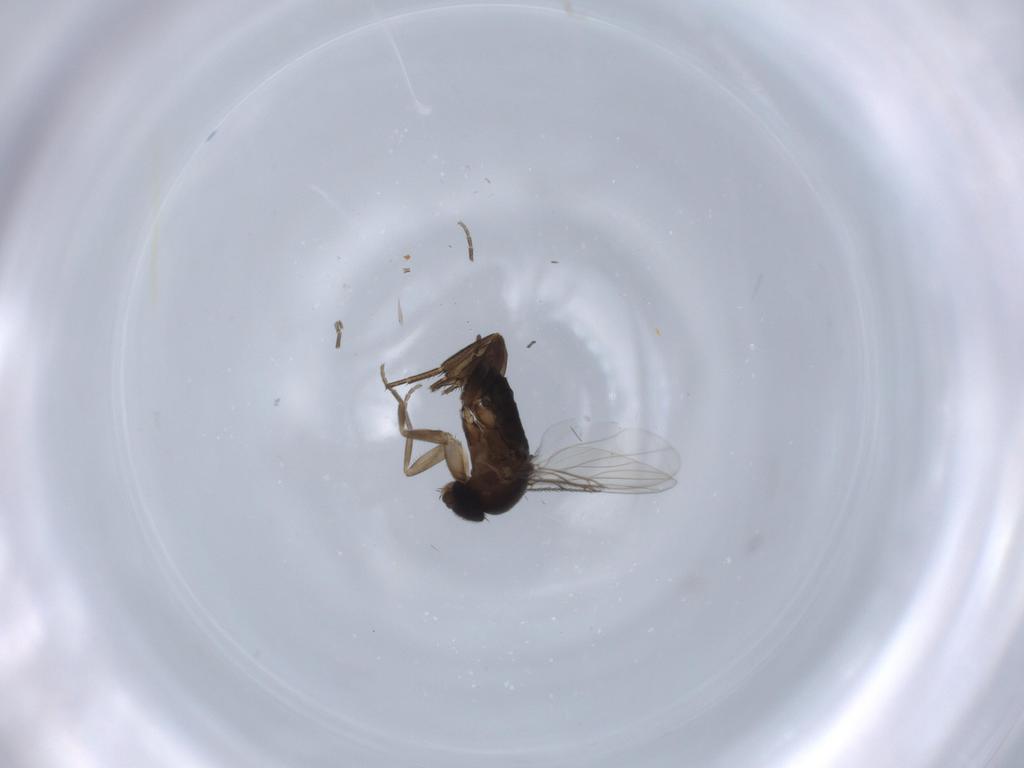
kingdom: Animalia
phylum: Arthropoda
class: Insecta
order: Diptera
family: Phoridae
